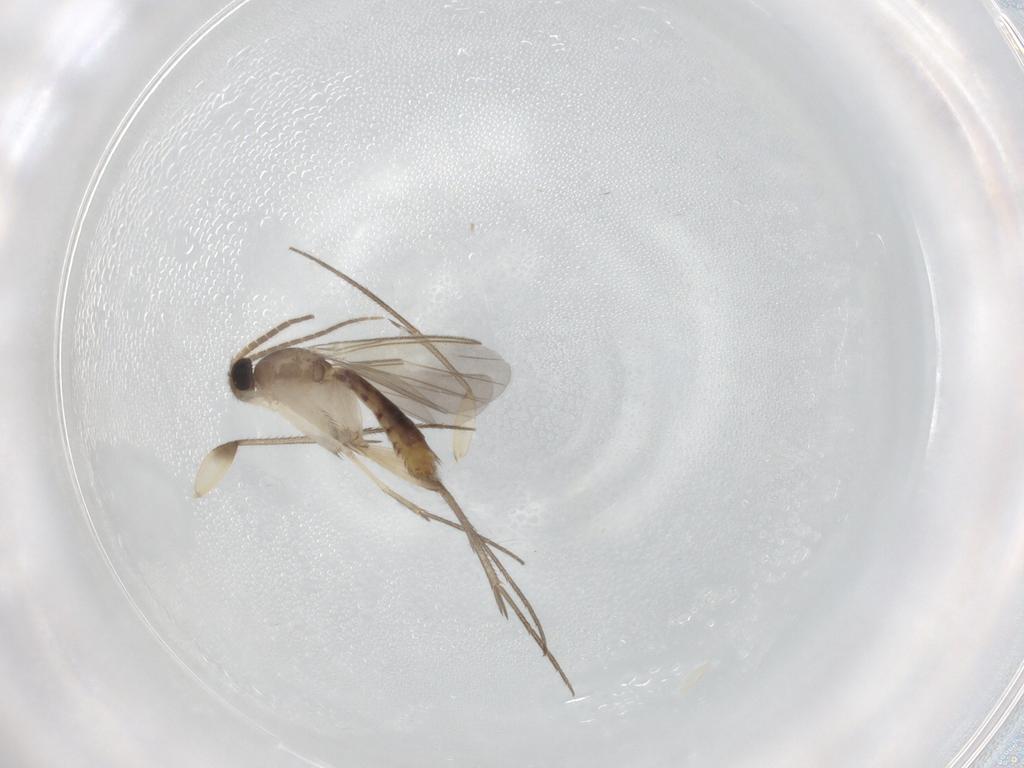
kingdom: Animalia
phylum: Arthropoda
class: Insecta
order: Diptera
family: Mycetophilidae
